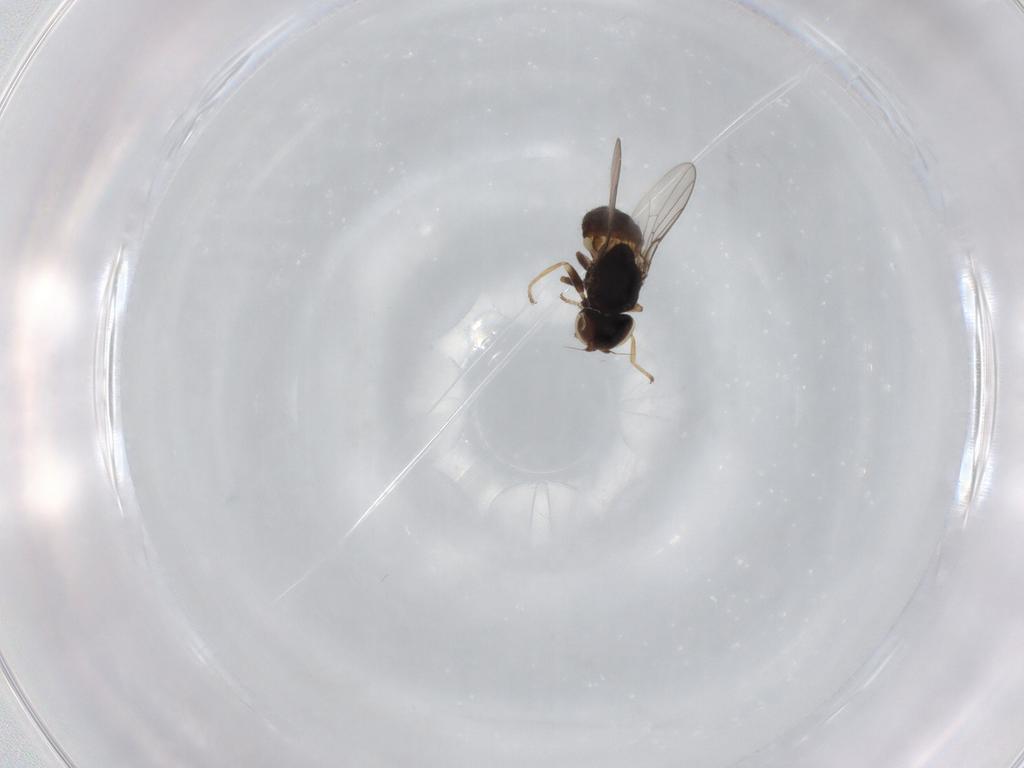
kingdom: Animalia
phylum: Arthropoda
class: Insecta
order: Diptera
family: Chloropidae
